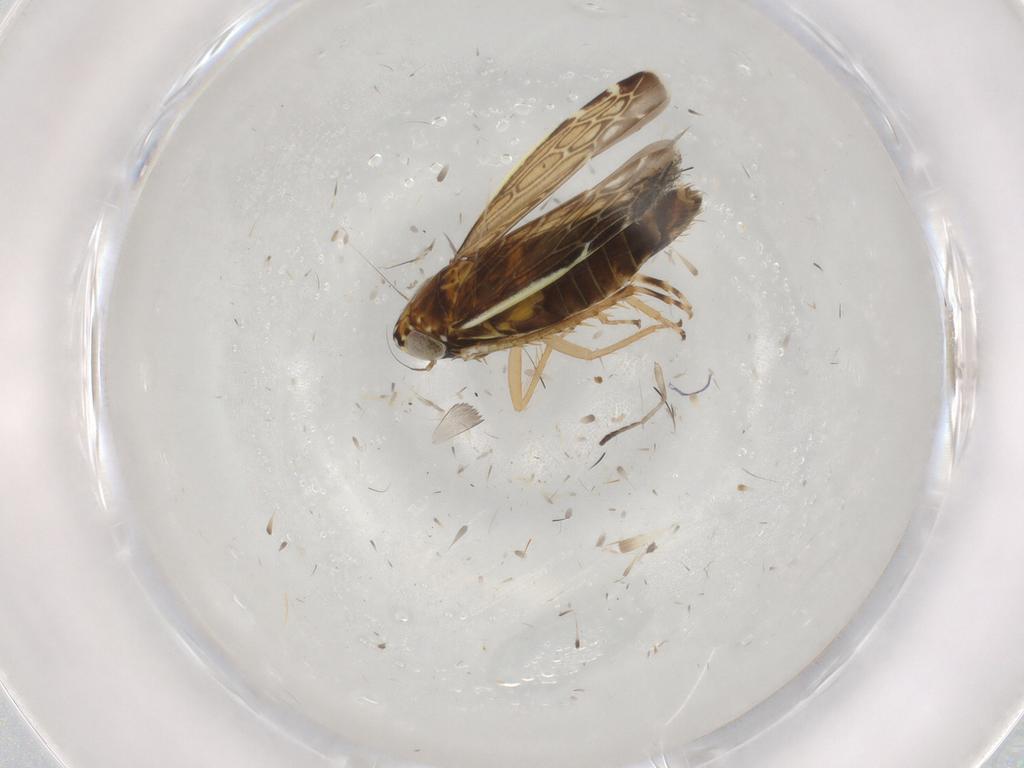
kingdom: Animalia
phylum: Arthropoda
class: Insecta
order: Hemiptera
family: Cicadellidae
